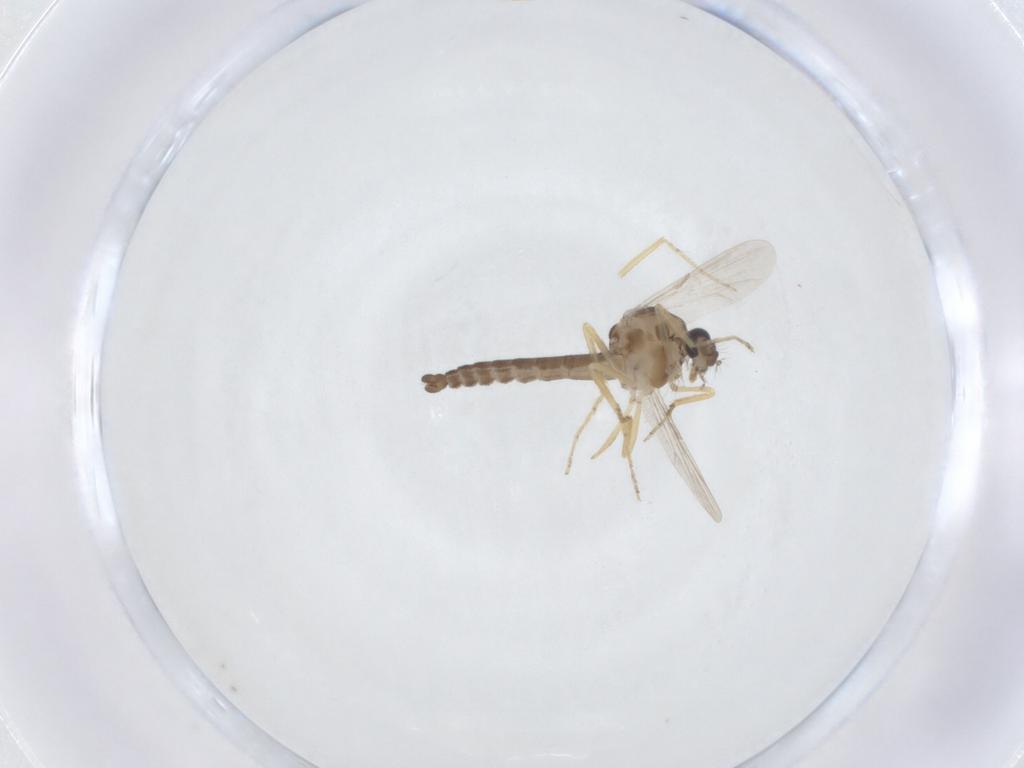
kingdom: Animalia
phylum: Arthropoda
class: Insecta
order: Diptera
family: Ceratopogonidae
